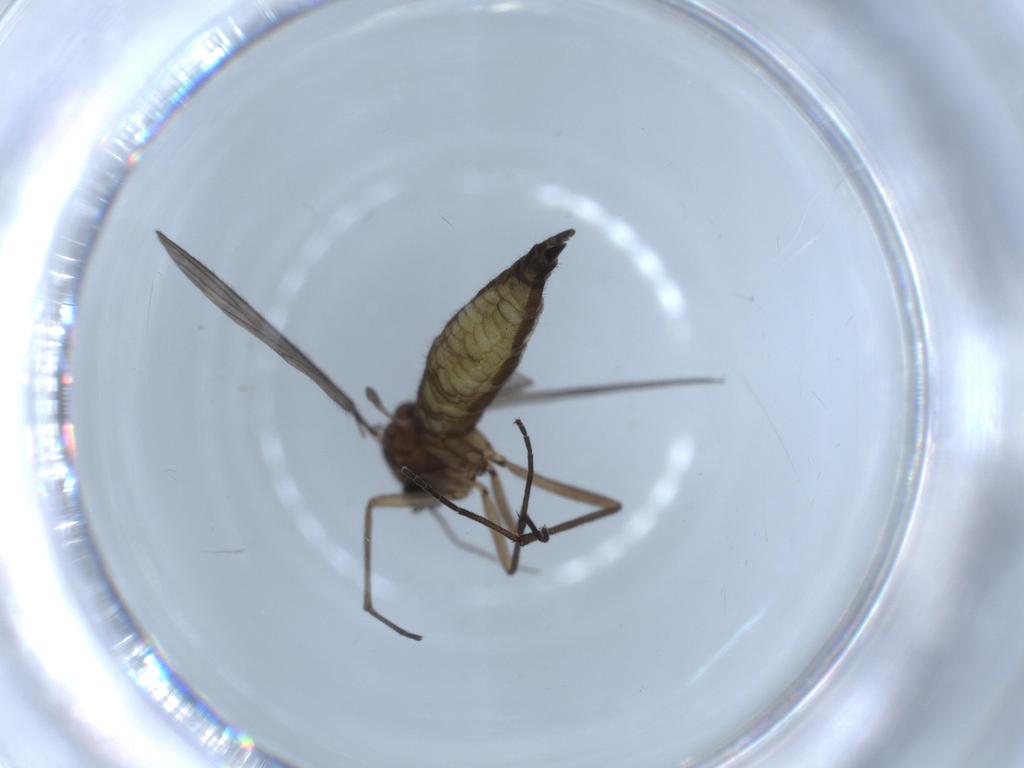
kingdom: Animalia
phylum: Arthropoda
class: Insecta
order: Diptera
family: Sciaridae
